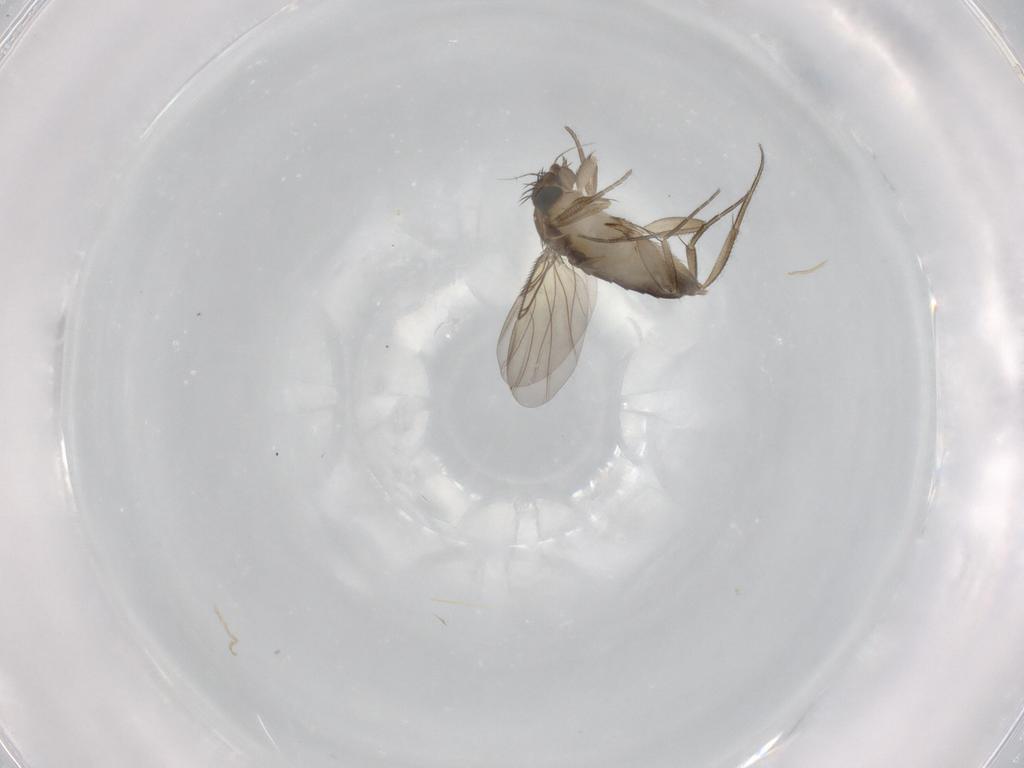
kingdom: Animalia
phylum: Arthropoda
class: Insecta
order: Diptera
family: Phoridae
